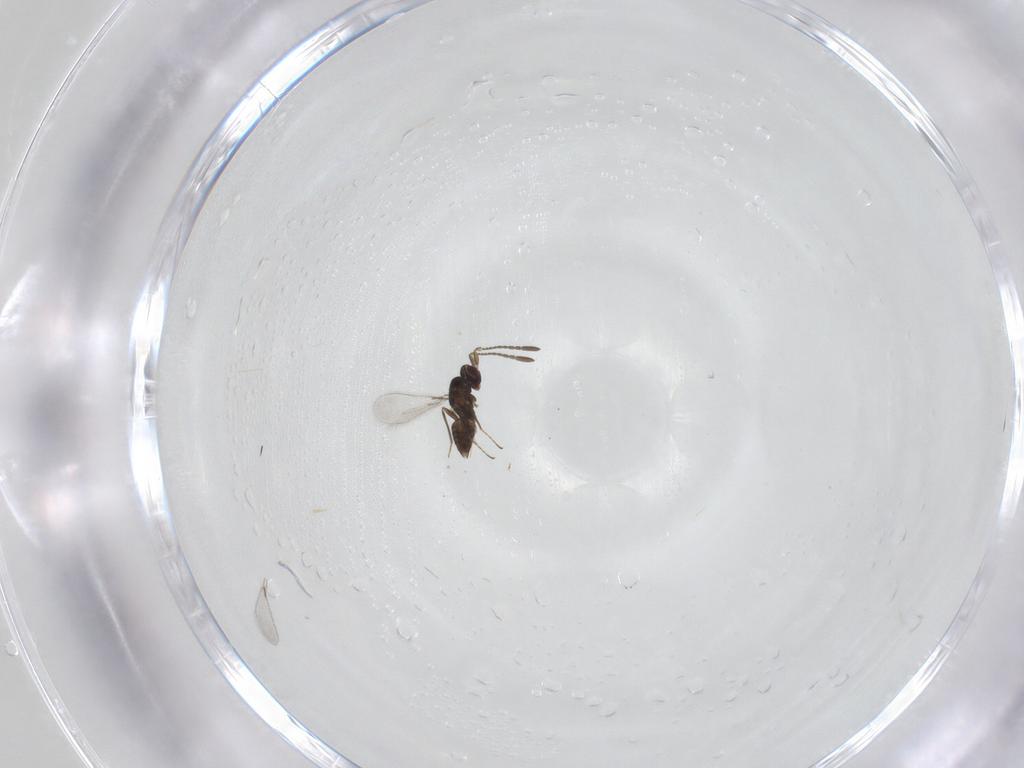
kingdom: Animalia
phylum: Arthropoda
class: Insecta
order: Hymenoptera
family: Mymaridae
